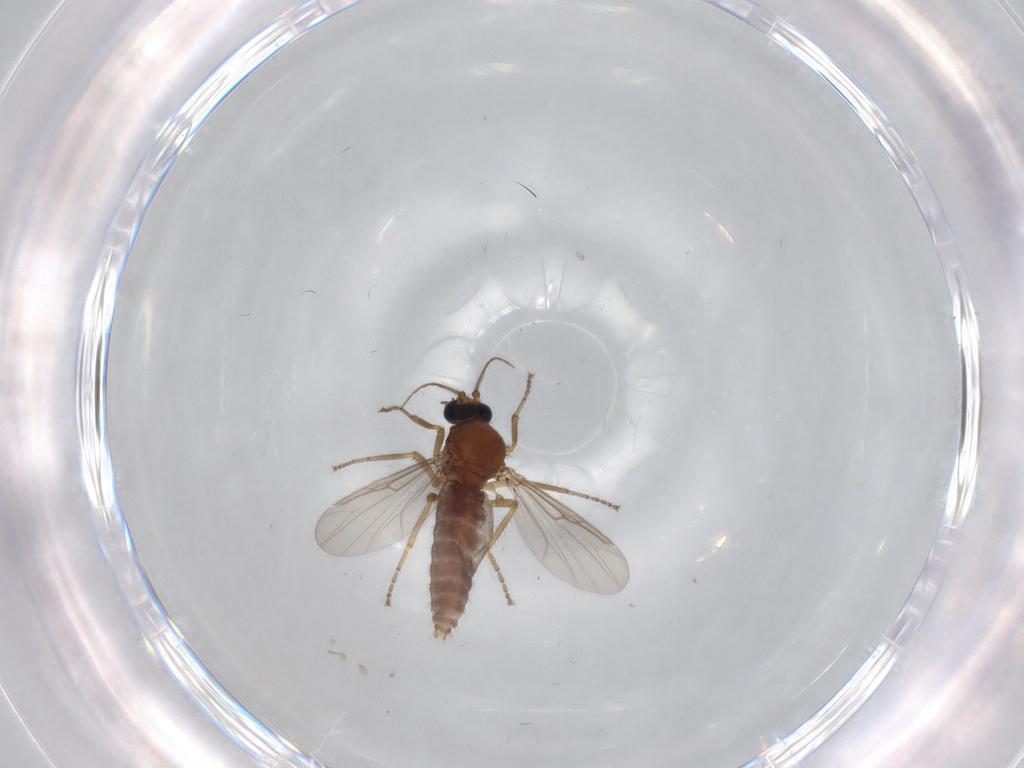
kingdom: Animalia
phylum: Arthropoda
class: Insecta
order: Diptera
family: Ceratopogonidae
